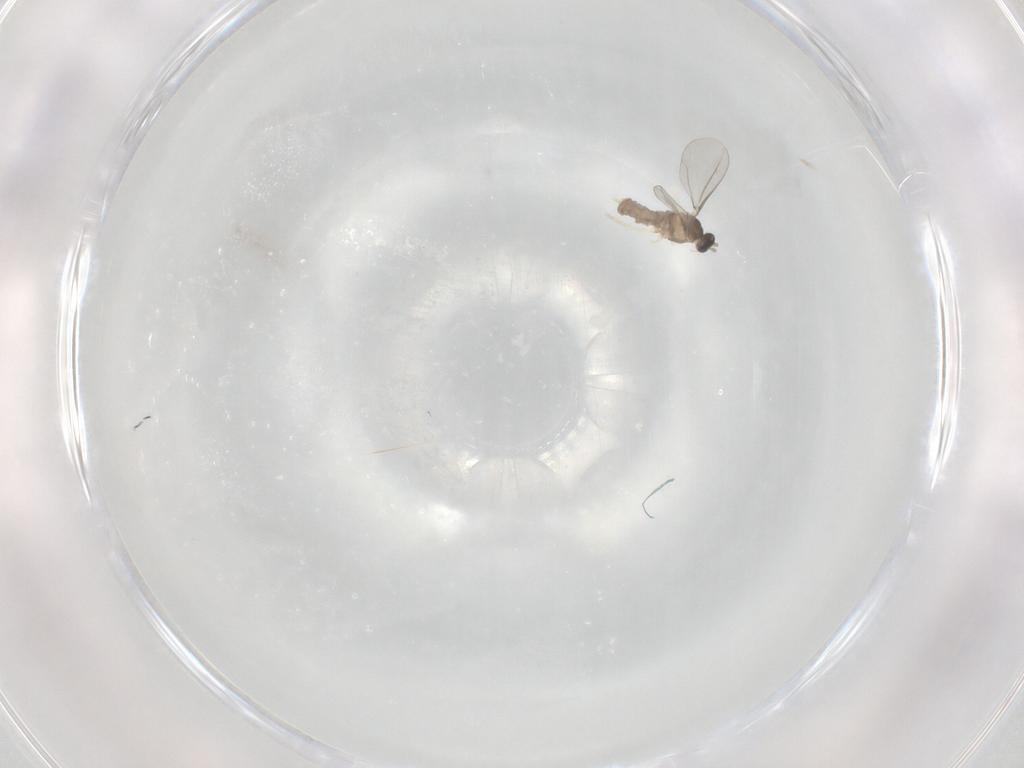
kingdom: Animalia
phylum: Arthropoda
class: Insecta
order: Diptera
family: Cecidomyiidae
